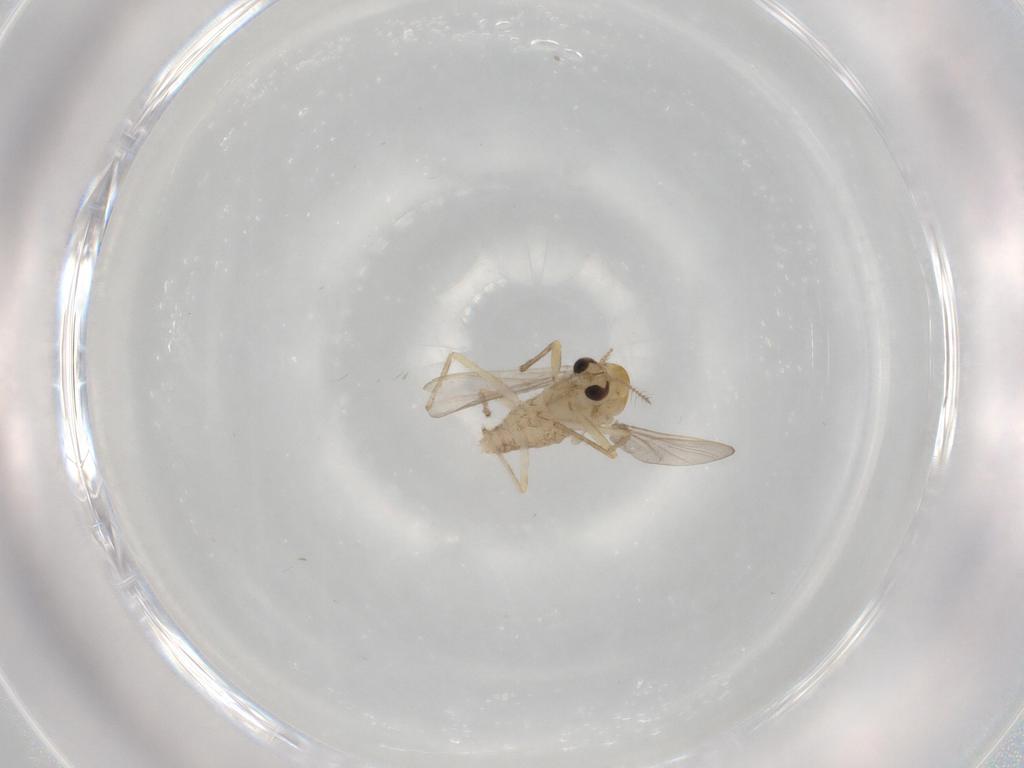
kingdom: Animalia
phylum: Arthropoda
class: Insecta
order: Diptera
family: Chironomidae
